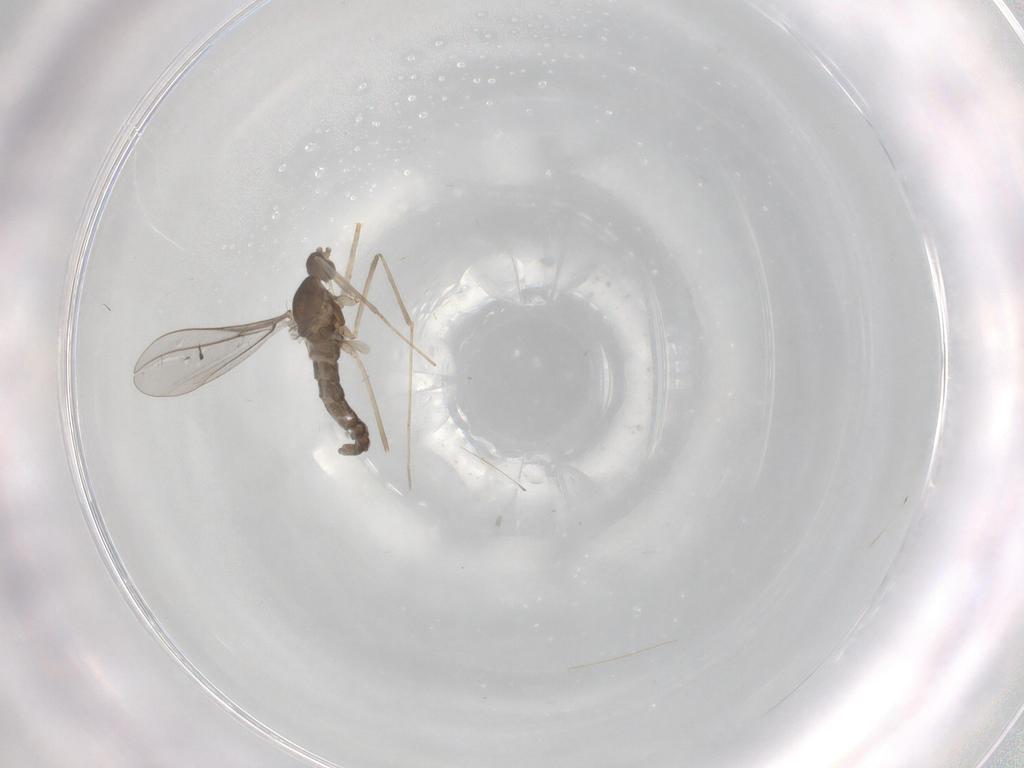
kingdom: Animalia
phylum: Arthropoda
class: Insecta
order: Diptera
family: Cecidomyiidae
